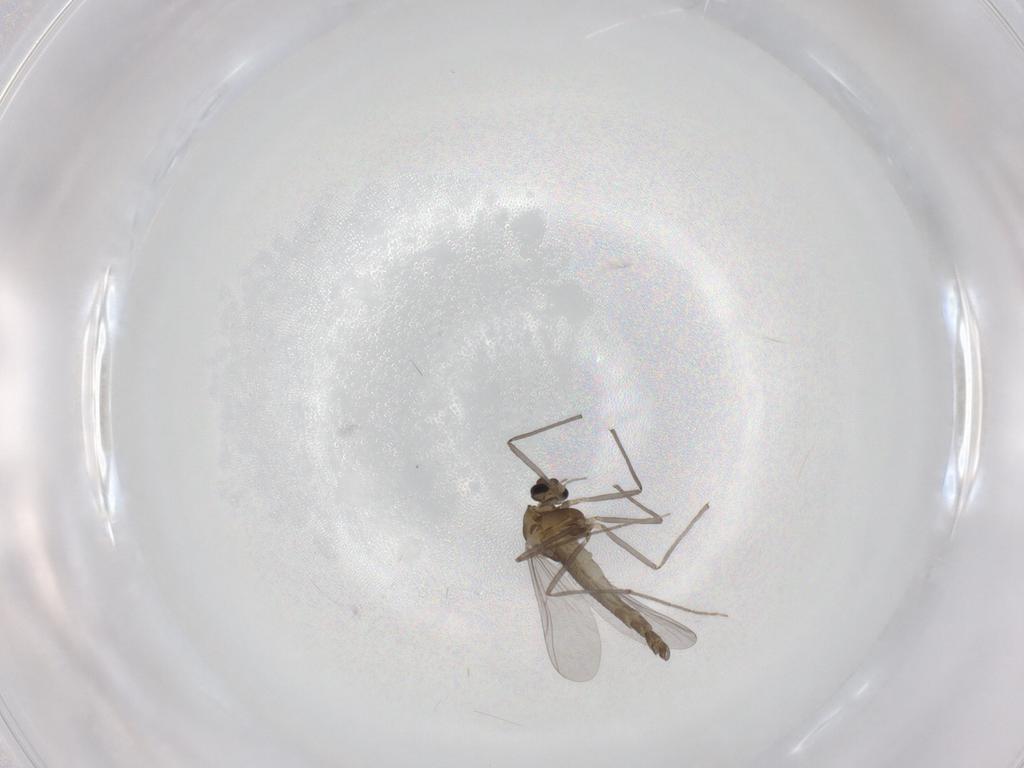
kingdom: Animalia
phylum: Arthropoda
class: Insecta
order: Diptera
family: Chironomidae
